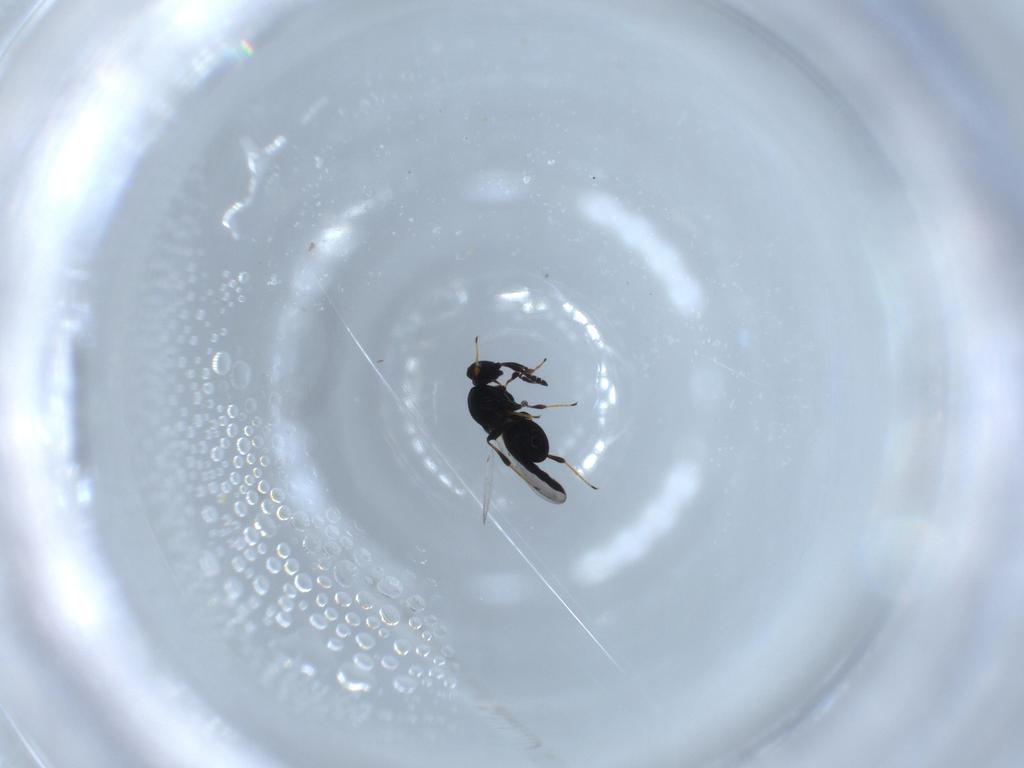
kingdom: Animalia
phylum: Arthropoda
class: Insecta
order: Hymenoptera
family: Platygastridae
